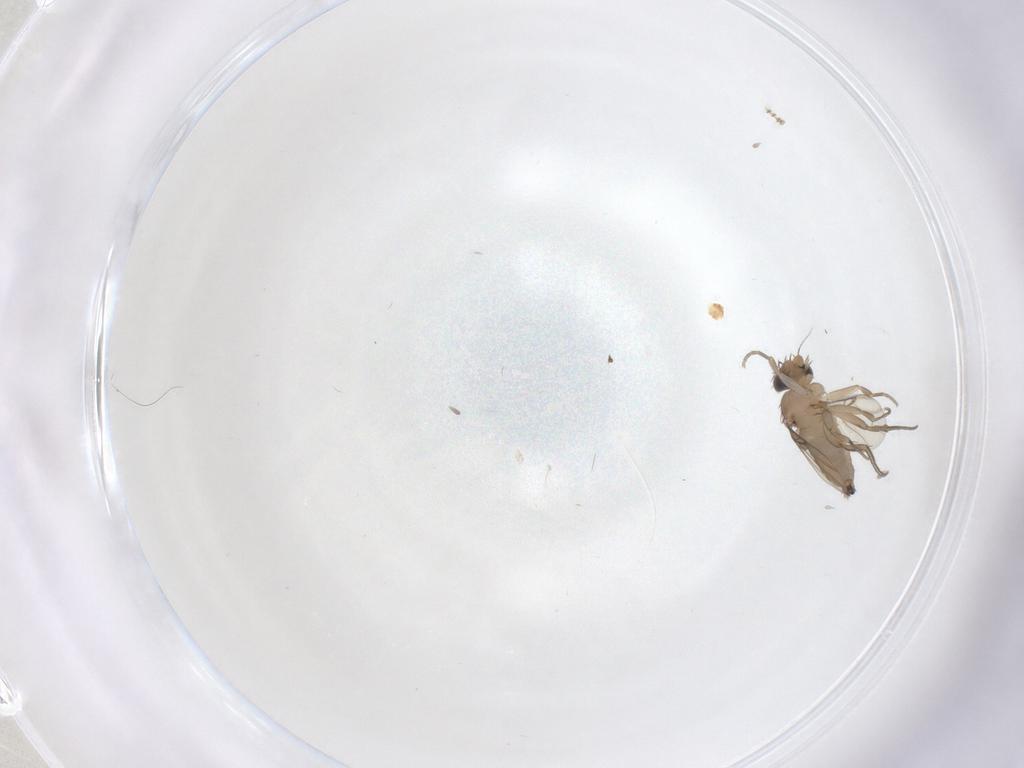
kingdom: Animalia
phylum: Arthropoda
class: Insecta
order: Diptera
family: Phoridae
